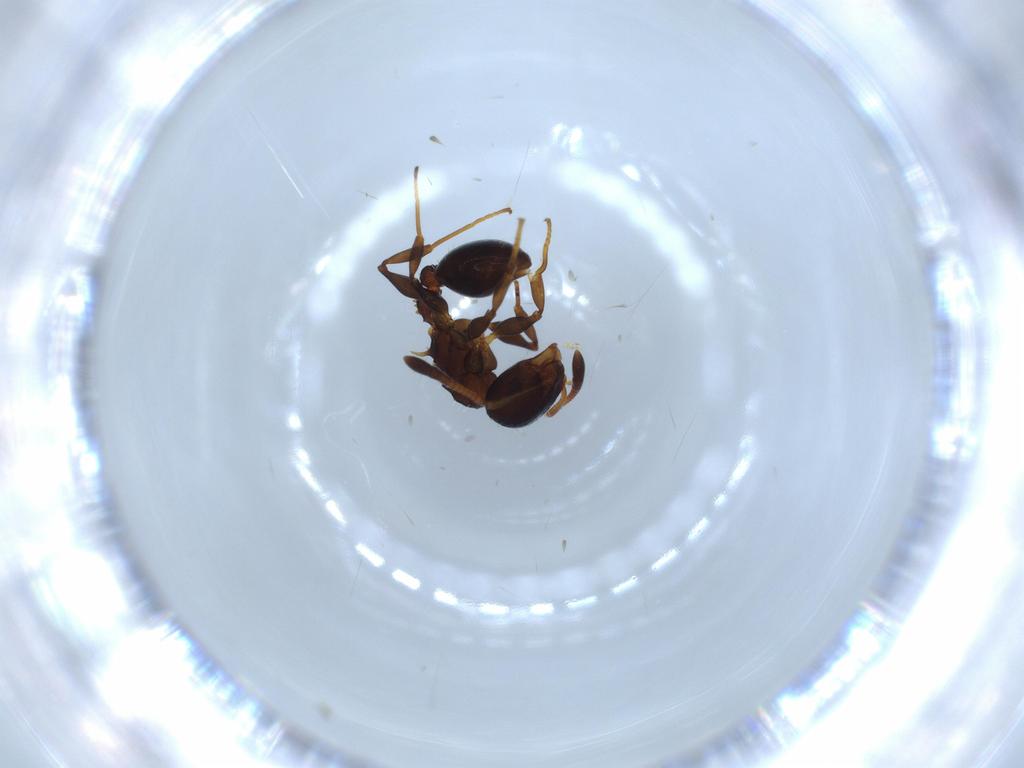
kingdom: Animalia
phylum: Arthropoda
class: Insecta
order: Hymenoptera
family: Formicidae
